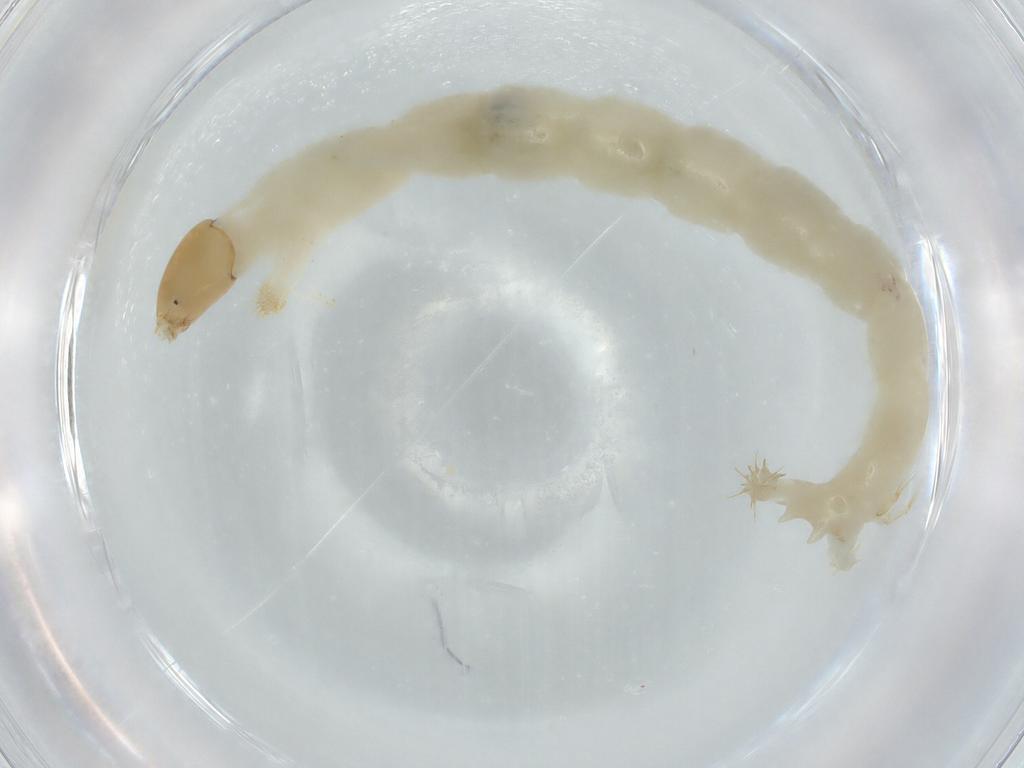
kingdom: Animalia
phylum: Arthropoda
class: Insecta
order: Diptera
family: Chironomidae
